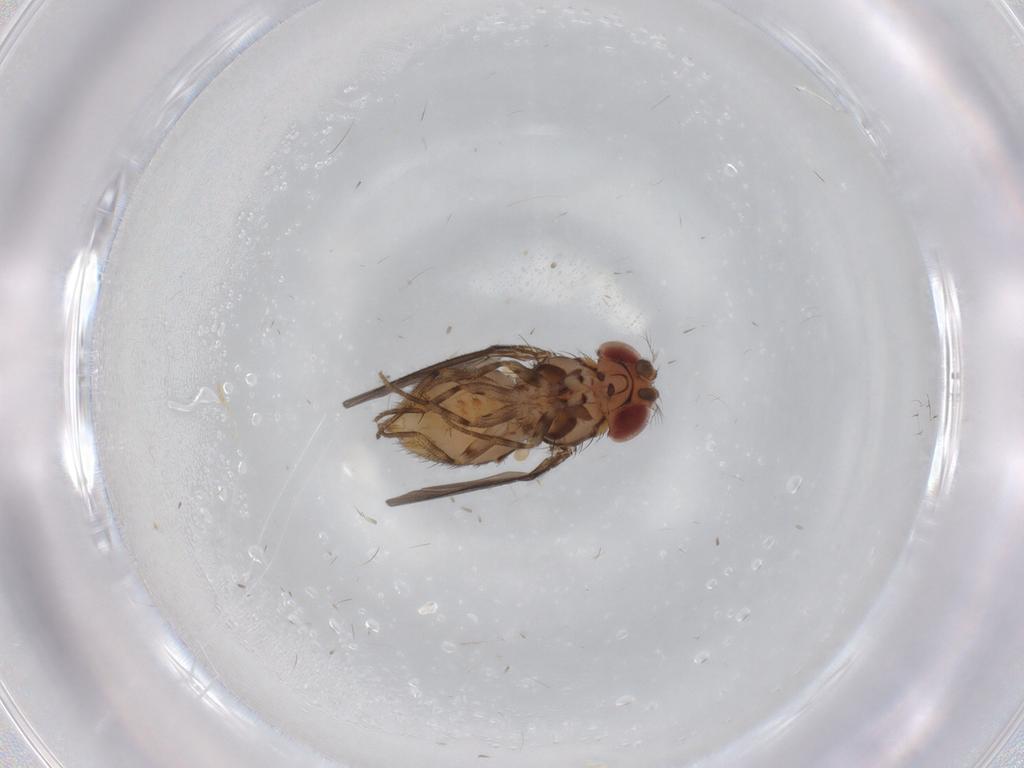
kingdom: Animalia
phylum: Arthropoda
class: Insecta
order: Diptera
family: Drosophilidae
